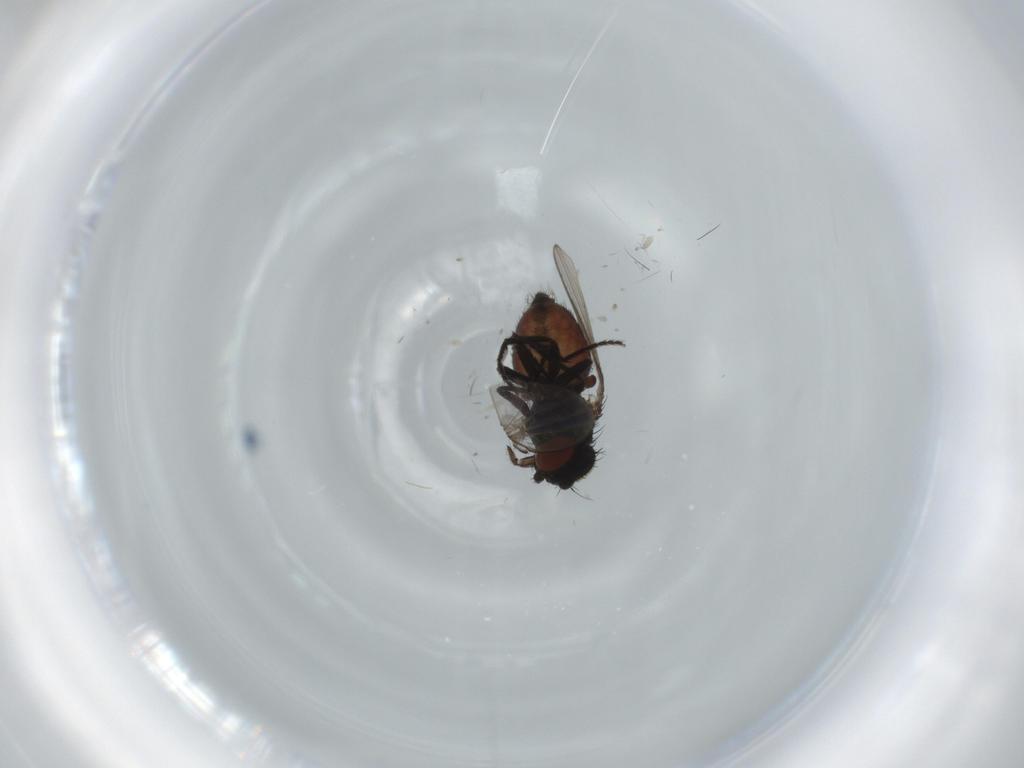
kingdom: Animalia
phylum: Arthropoda
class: Insecta
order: Diptera
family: Milichiidae
